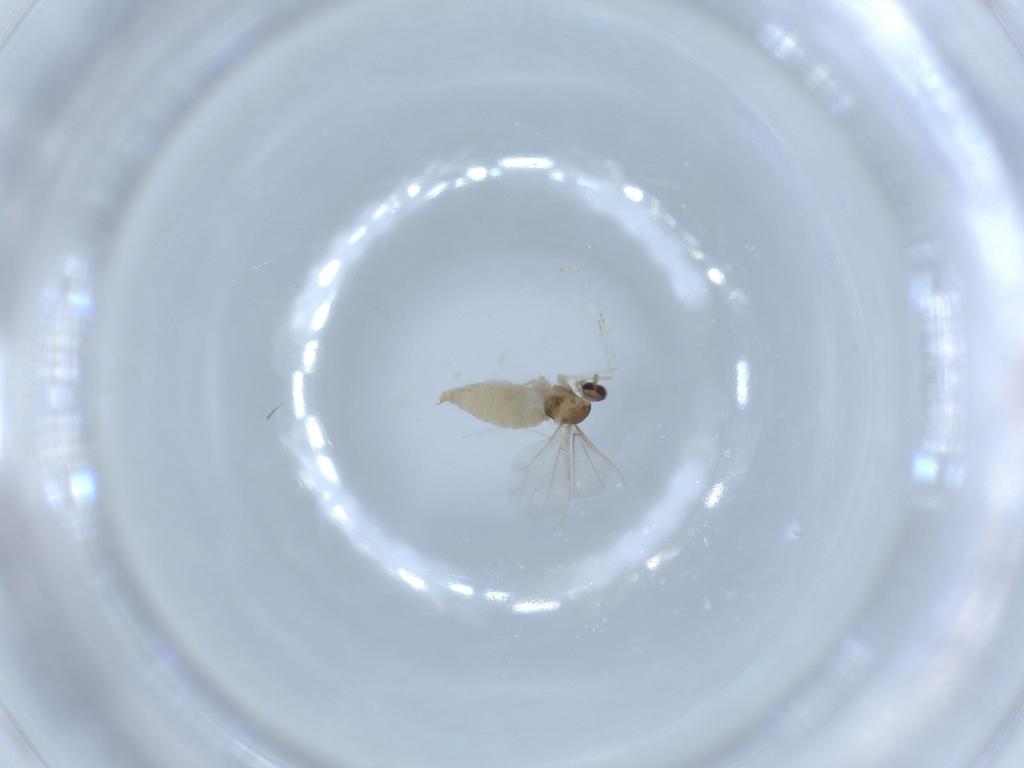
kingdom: Animalia
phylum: Arthropoda
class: Insecta
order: Diptera
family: Cecidomyiidae
